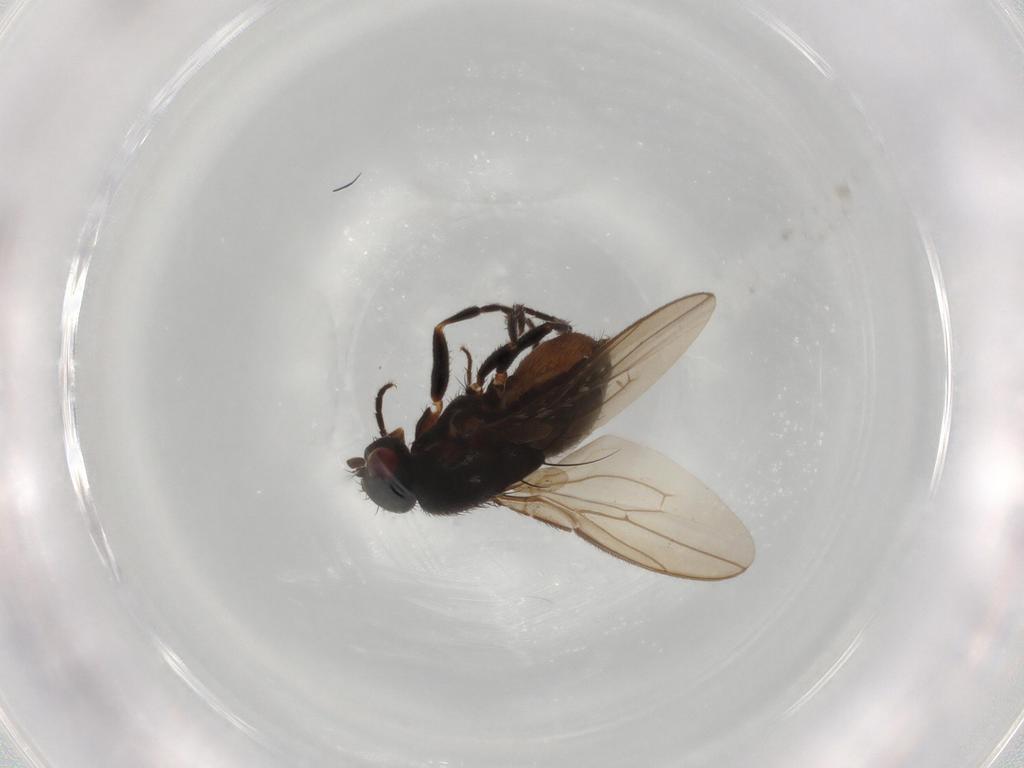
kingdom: Animalia
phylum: Arthropoda
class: Insecta
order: Diptera
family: Sphaeroceridae
